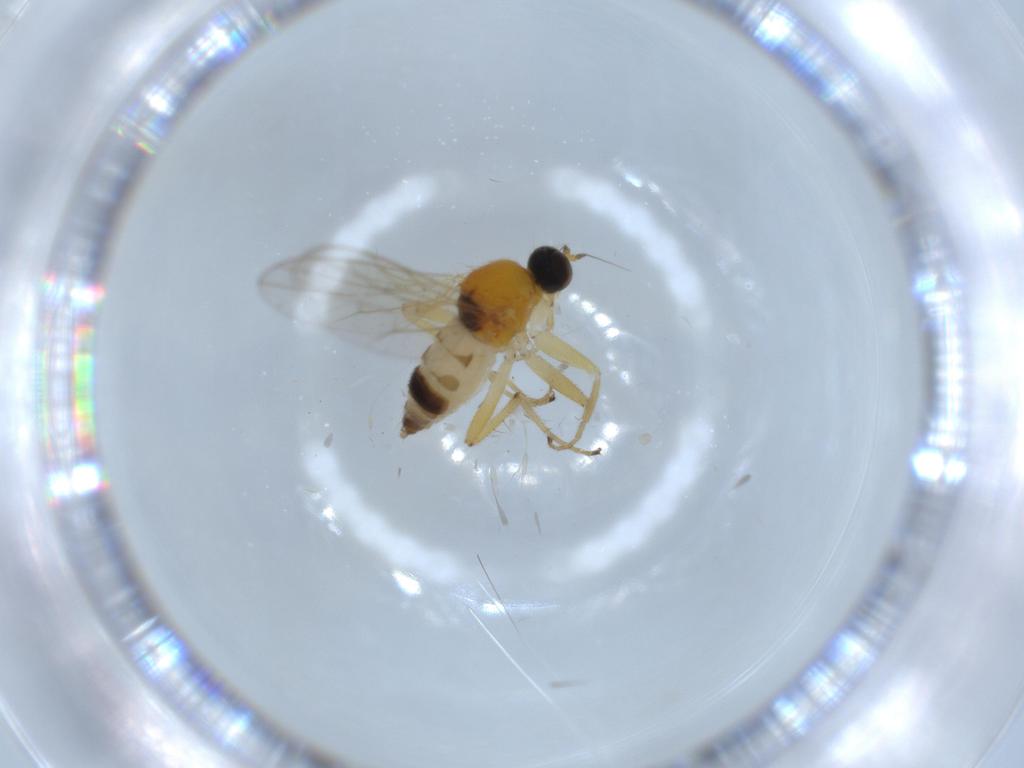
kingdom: Animalia
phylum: Arthropoda
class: Insecta
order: Diptera
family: Hybotidae
